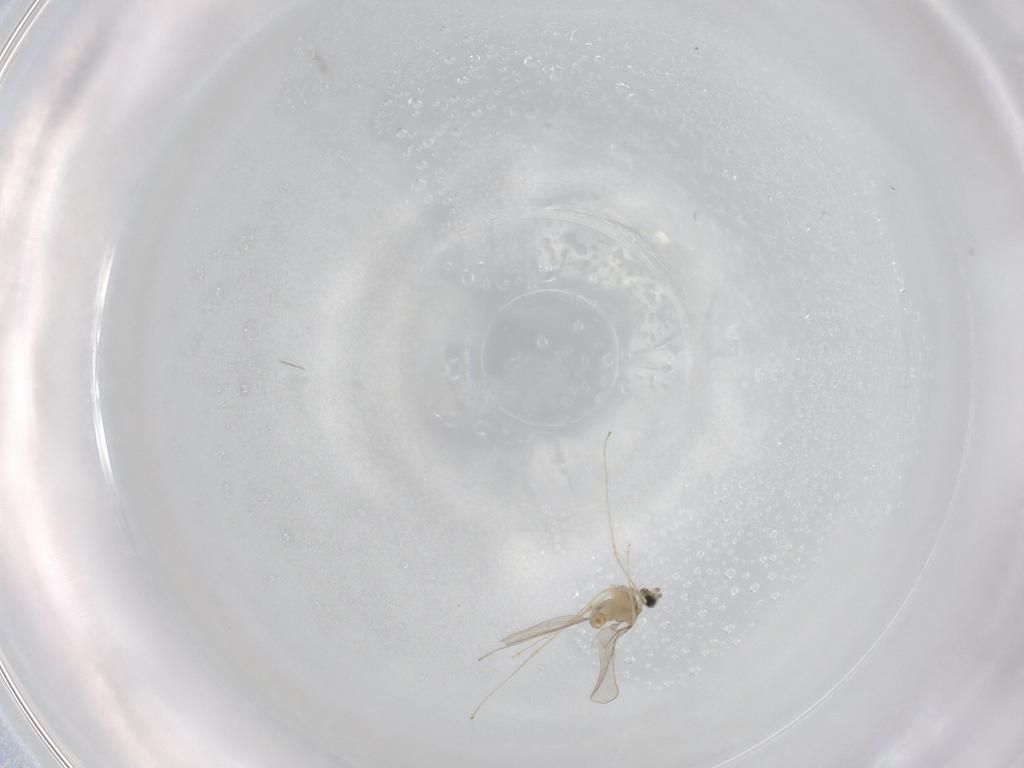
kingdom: Animalia
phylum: Arthropoda
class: Insecta
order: Diptera
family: Cecidomyiidae
